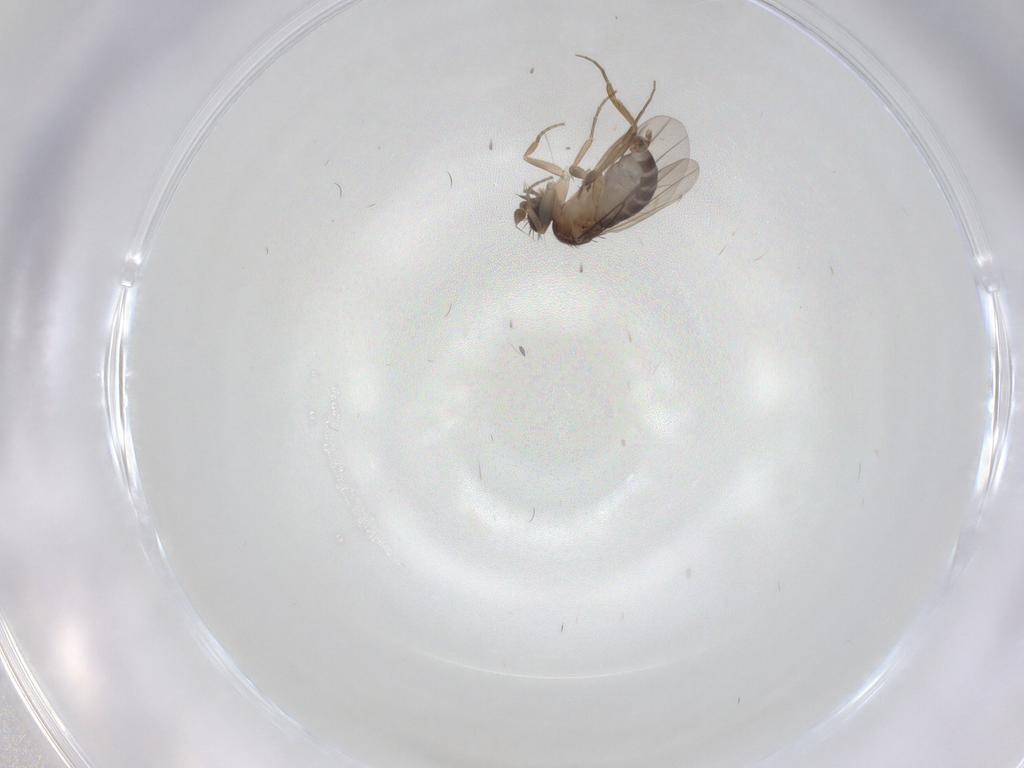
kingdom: Animalia
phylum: Arthropoda
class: Insecta
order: Diptera
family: Phoridae
